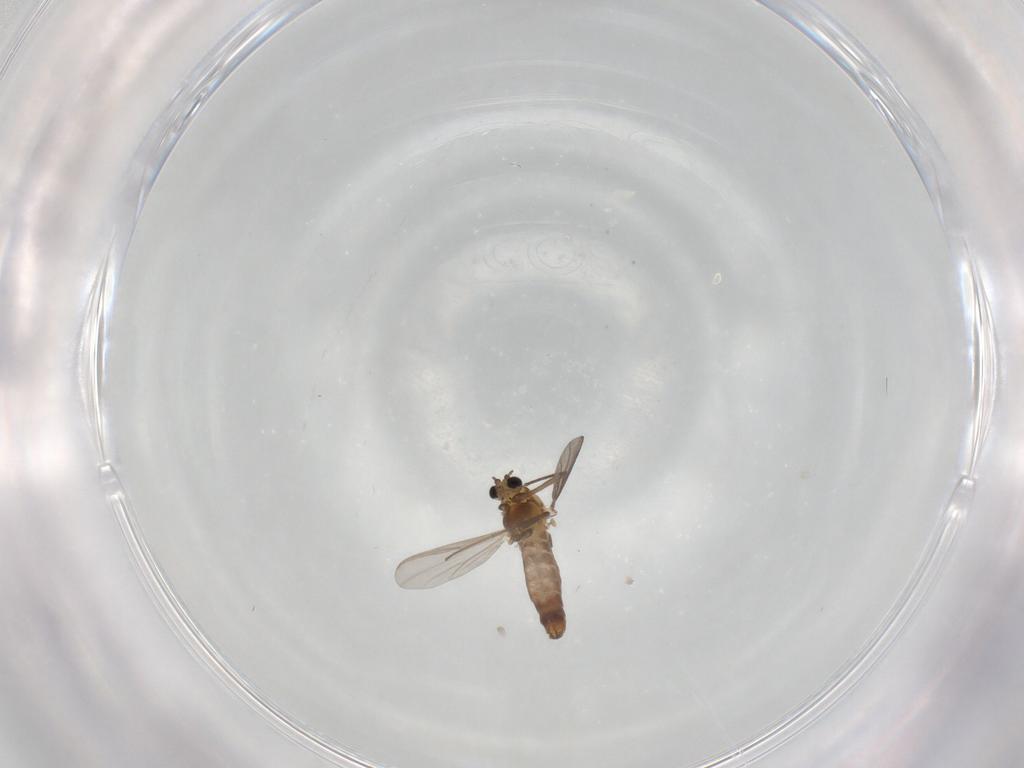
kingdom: Animalia
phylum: Arthropoda
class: Insecta
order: Diptera
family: Chironomidae
